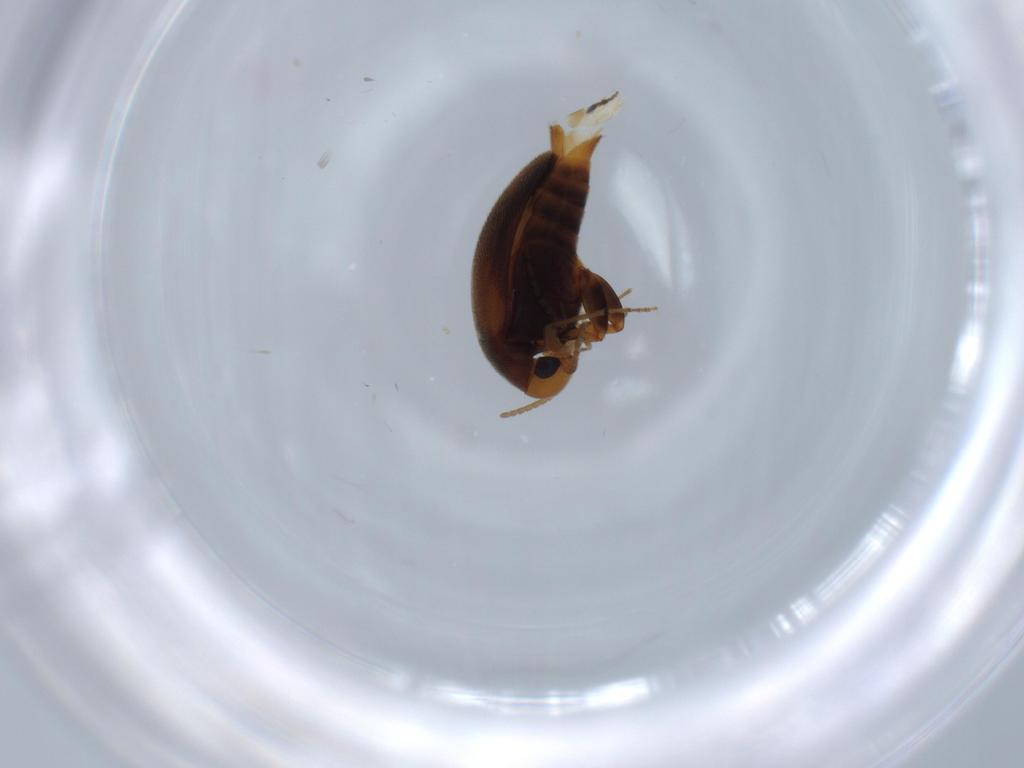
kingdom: Animalia
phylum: Arthropoda
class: Insecta
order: Coleoptera
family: Mordellidae
